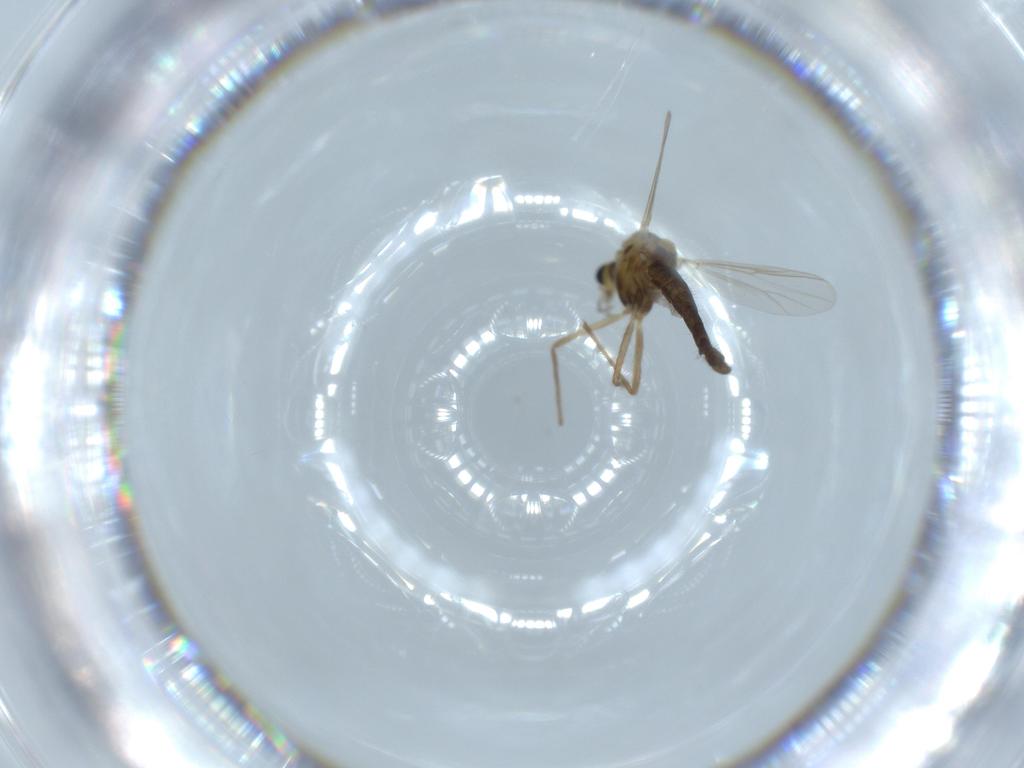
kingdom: Animalia
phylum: Arthropoda
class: Insecta
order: Diptera
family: Chironomidae
